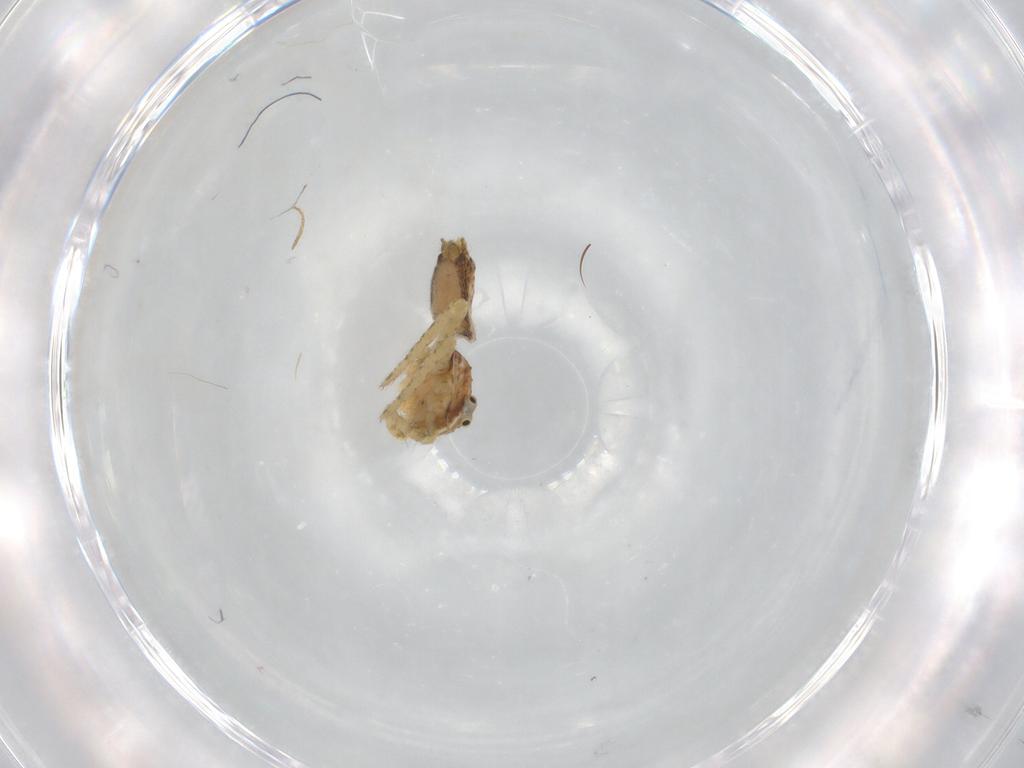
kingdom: Animalia
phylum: Arthropoda
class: Arachnida
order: Araneae
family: Thomisidae
